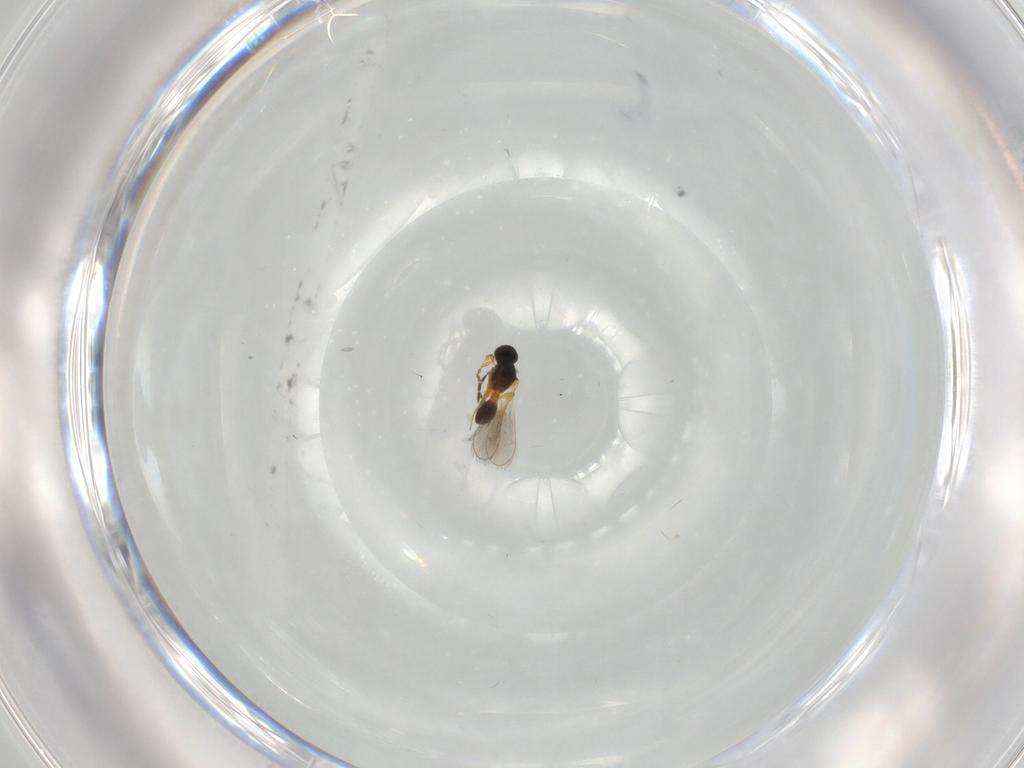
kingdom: Animalia
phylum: Arthropoda
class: Insecta
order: Hymenoptera
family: Platygastridae
